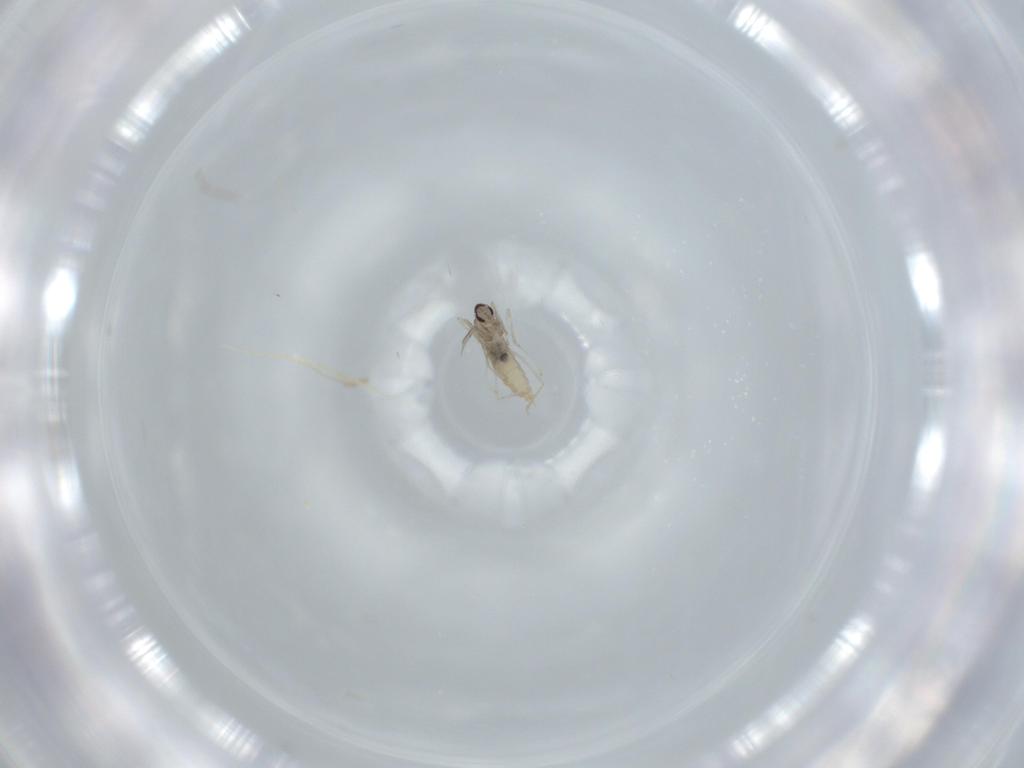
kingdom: Animalia
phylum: Arthropoda
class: Insecta
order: Diptera
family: Cecidomyiidae
